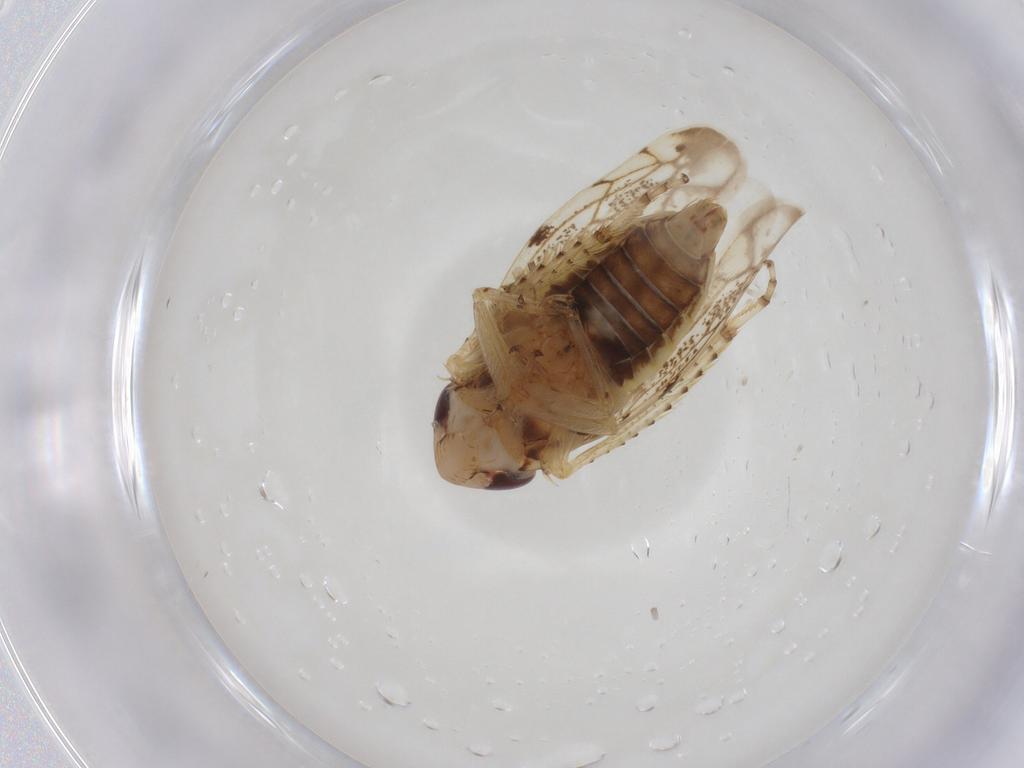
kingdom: Animalia
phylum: Arthropoda
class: Insecta
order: Hemiptera
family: Cicadellidae
